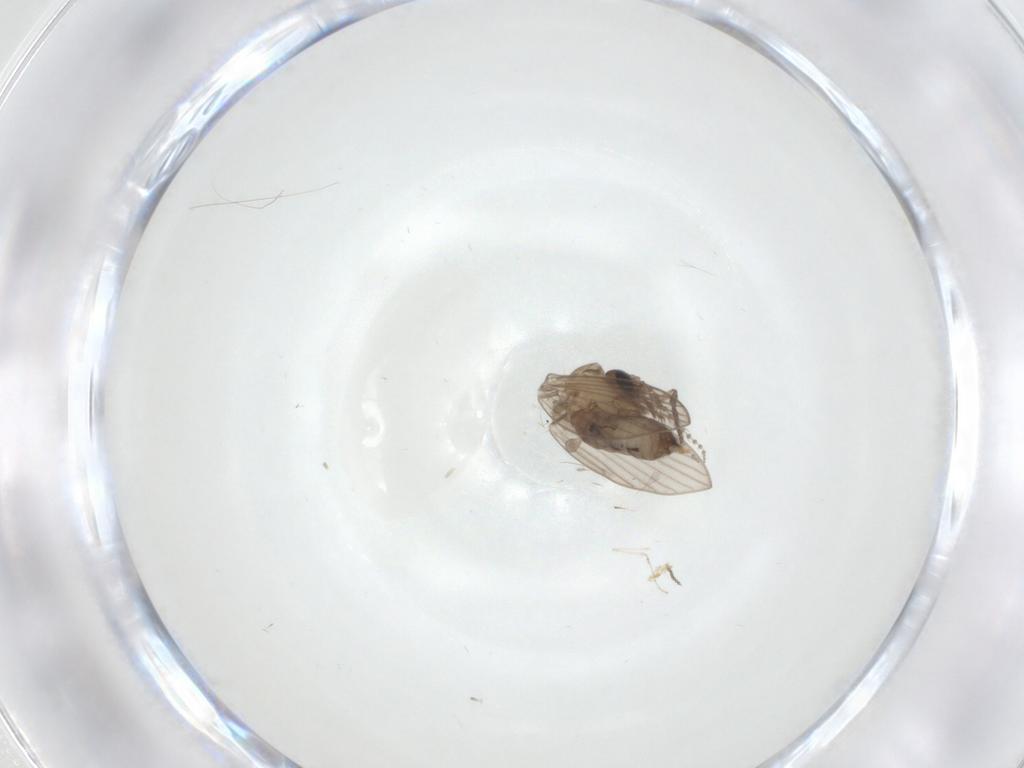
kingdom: Animalia
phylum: Arthropoda
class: Insecta
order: Diptera
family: Psychodidae
